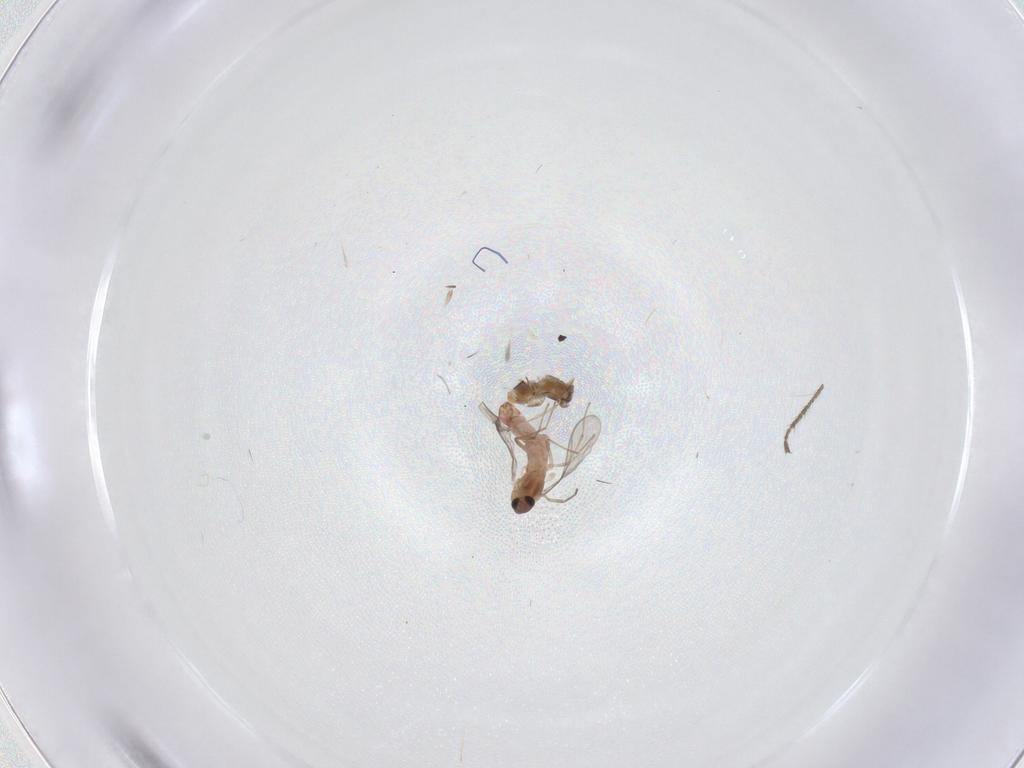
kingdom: Animalia
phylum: Arthropoda
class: Insecta
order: Diptera
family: Chironomidae
